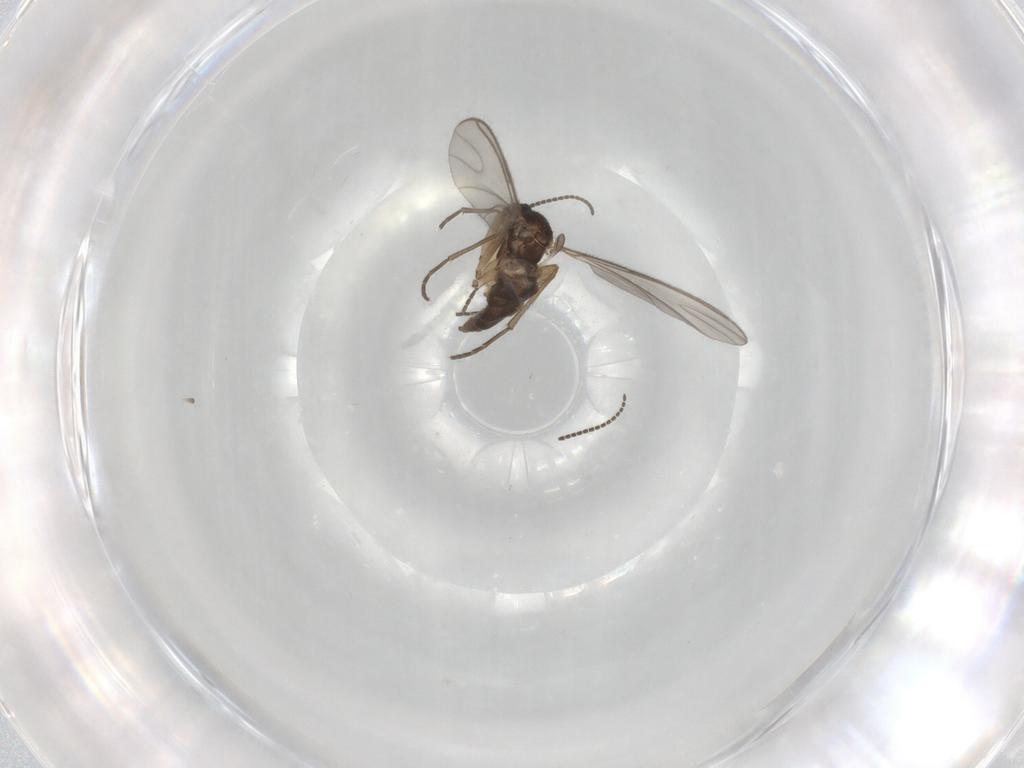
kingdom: Animalia
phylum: Arthropoda
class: Insecta
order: Diptera
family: Sciaridae
